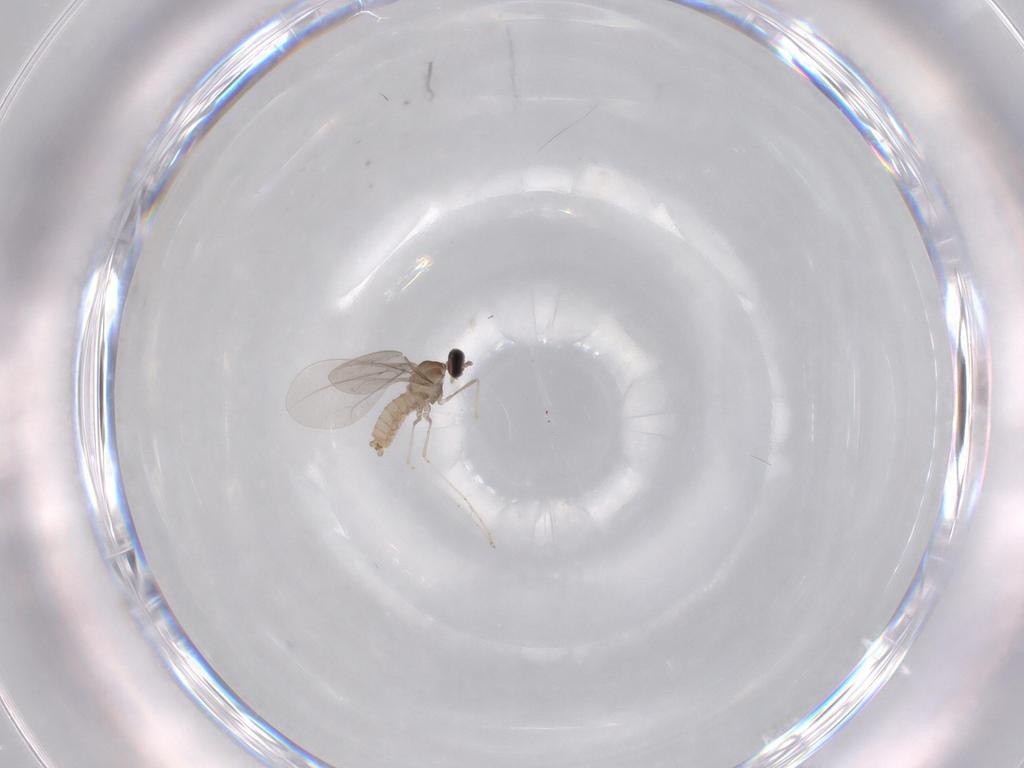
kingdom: Animalia
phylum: Arthropoda
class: Insecta
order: Diptera
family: Cecidomyiidae
